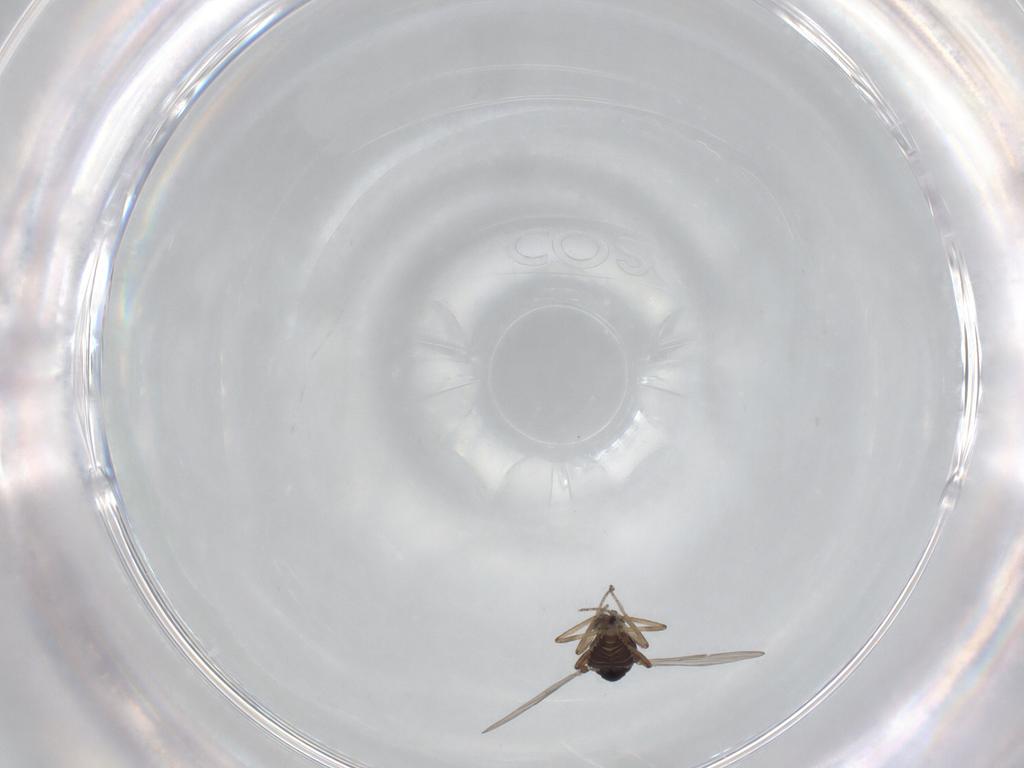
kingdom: Animalia
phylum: Arthropoda
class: Insecta
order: Diptera
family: Ceratopogonidae
